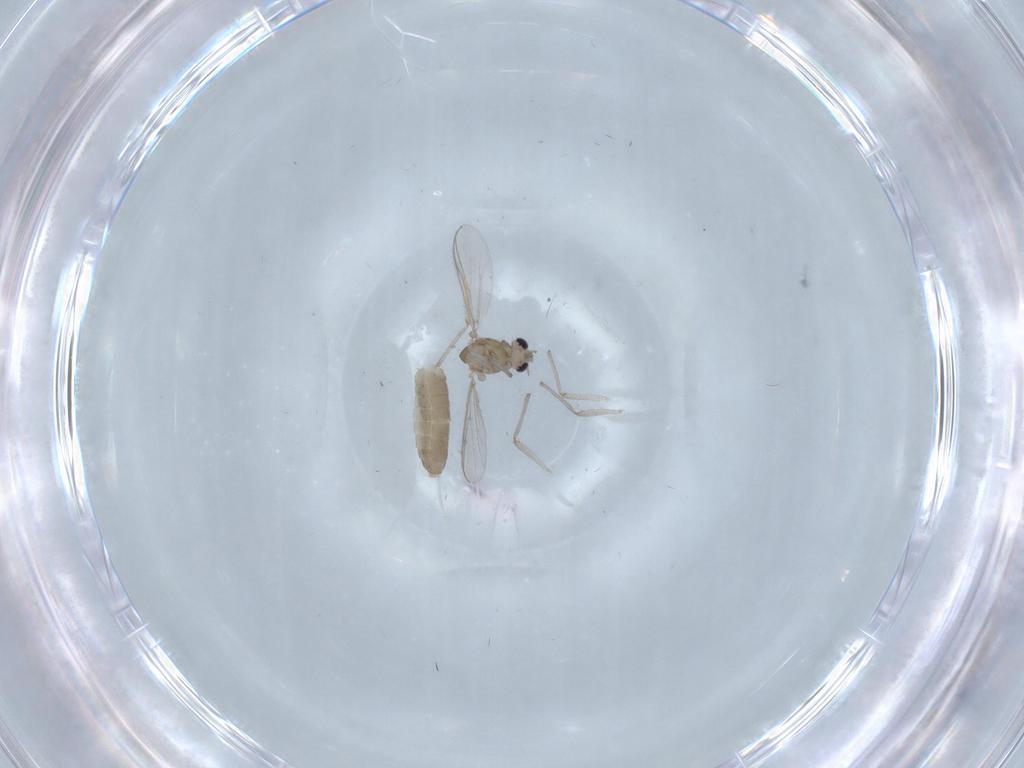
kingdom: Animalia
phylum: Arthropoda
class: Insecta
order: Diptera
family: Chironomidae
